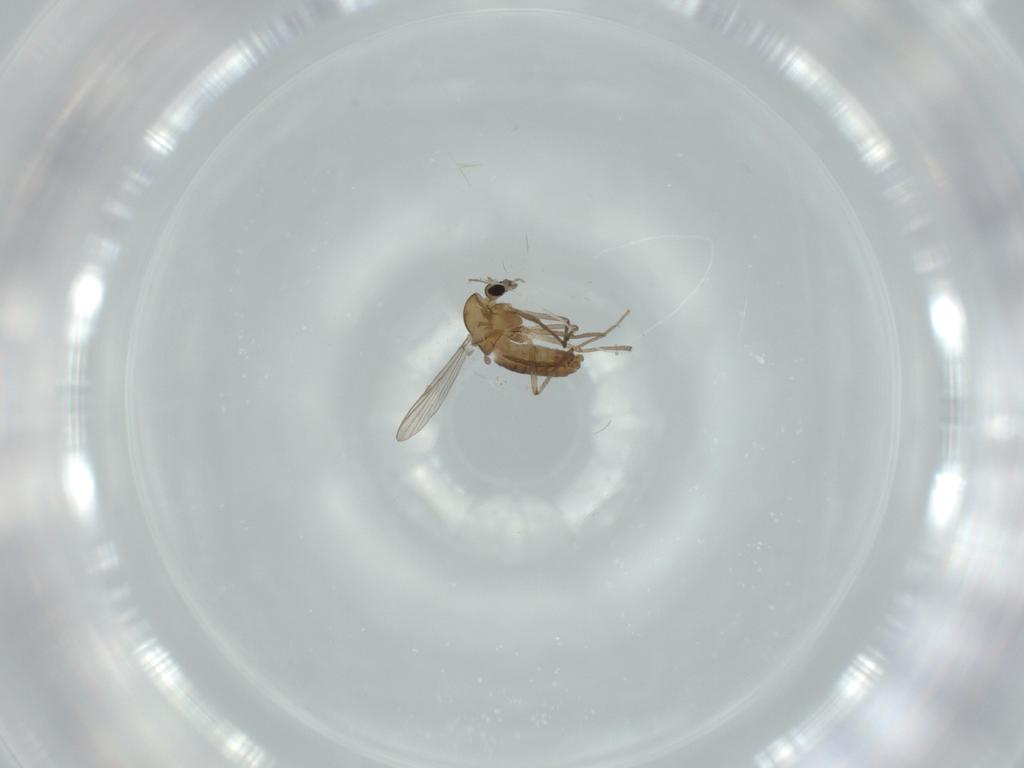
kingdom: Animalia
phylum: Arthropoda
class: Insecta
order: Diptera
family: Chironomidae
